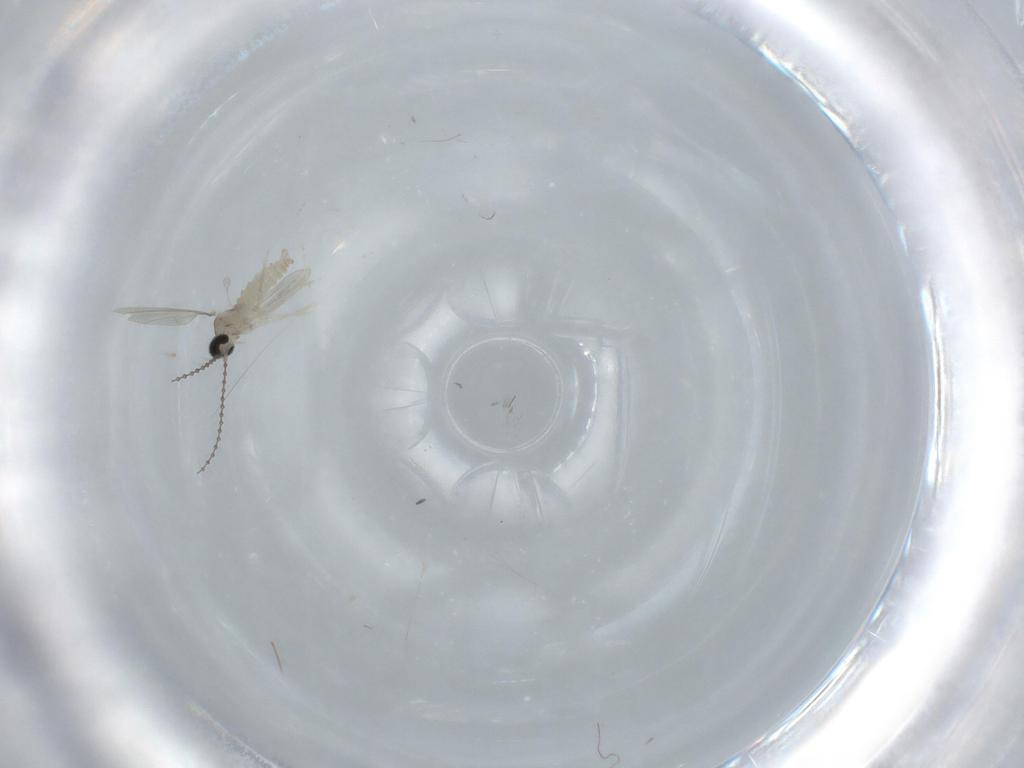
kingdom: Animalia
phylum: Arthropoda
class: Insecta
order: Diptera
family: Cecidomyiidae
